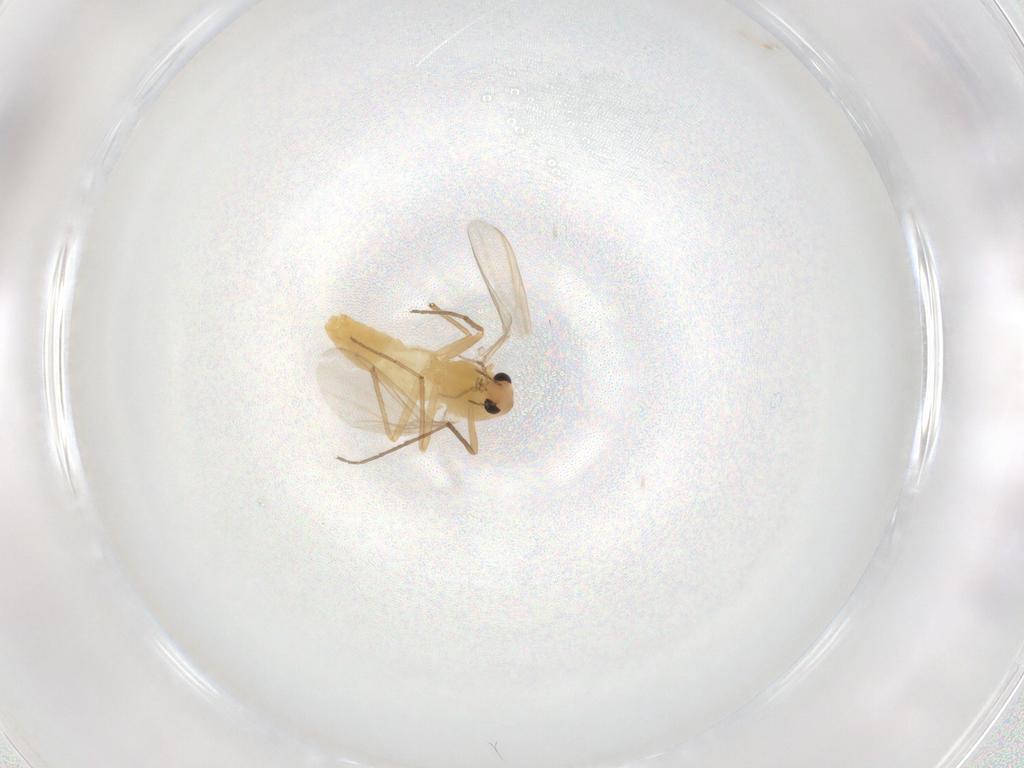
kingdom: Animalia
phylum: Arthropoda
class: Insecta
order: Diptera
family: Chironomidae
